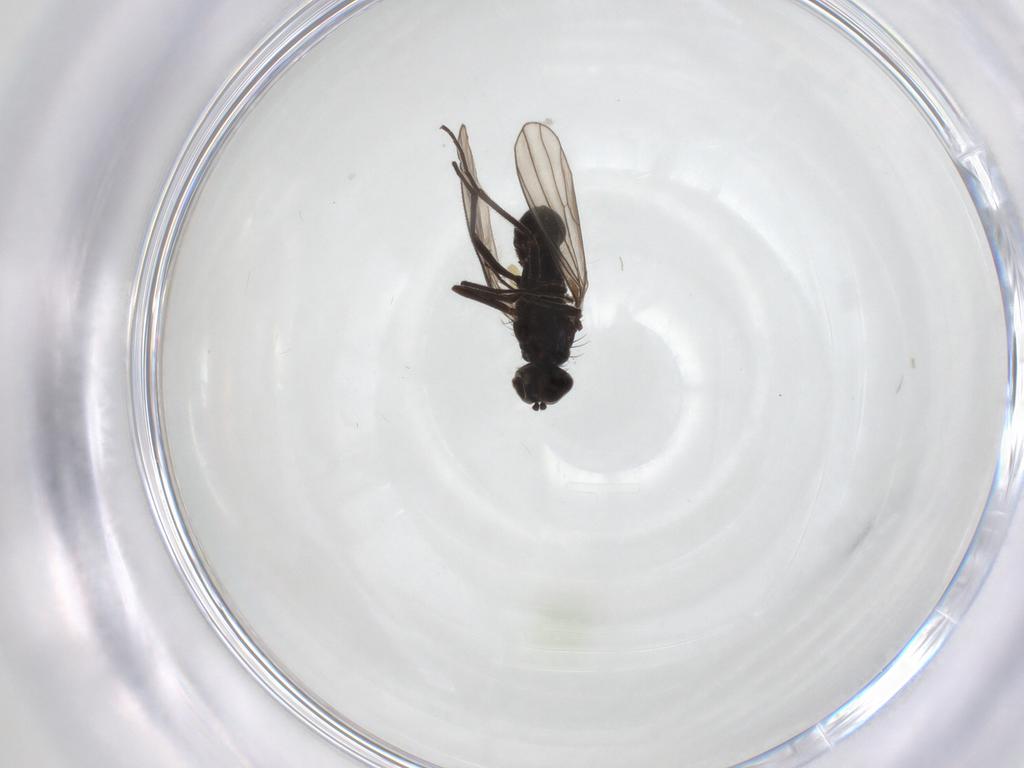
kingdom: Animalia
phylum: Arthropoda
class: Insecta
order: Diptera
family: Dolichopodidae
